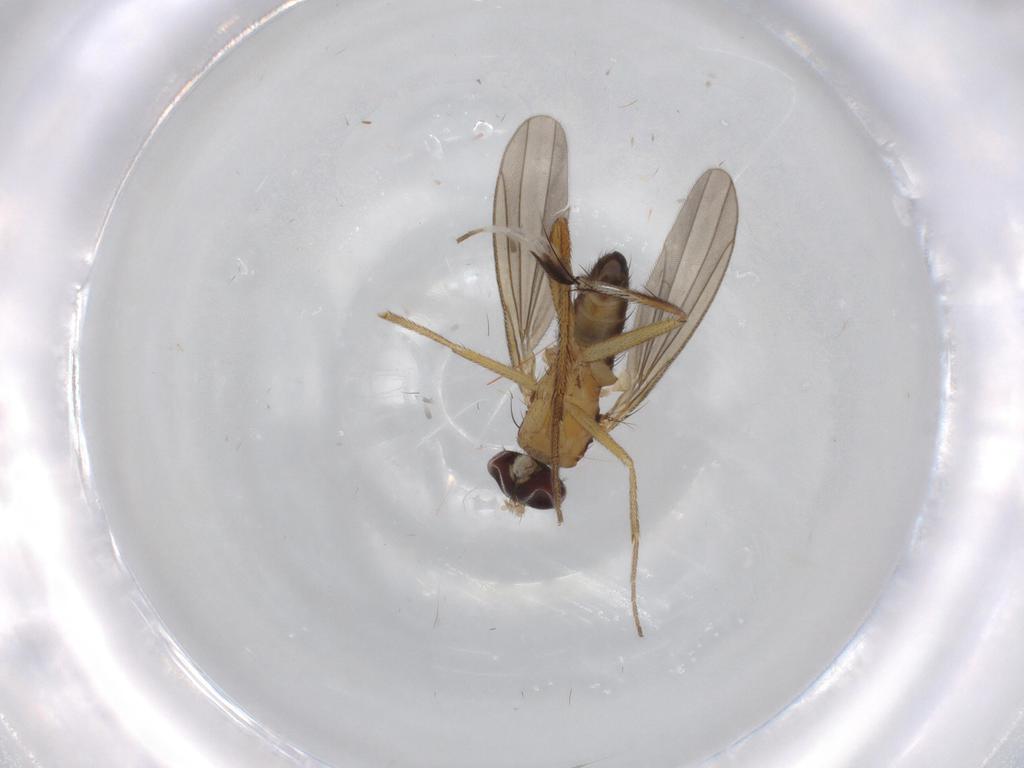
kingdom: Animalia
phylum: Arthropoda
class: Insecta
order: Diptera
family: Dolichopodidae
